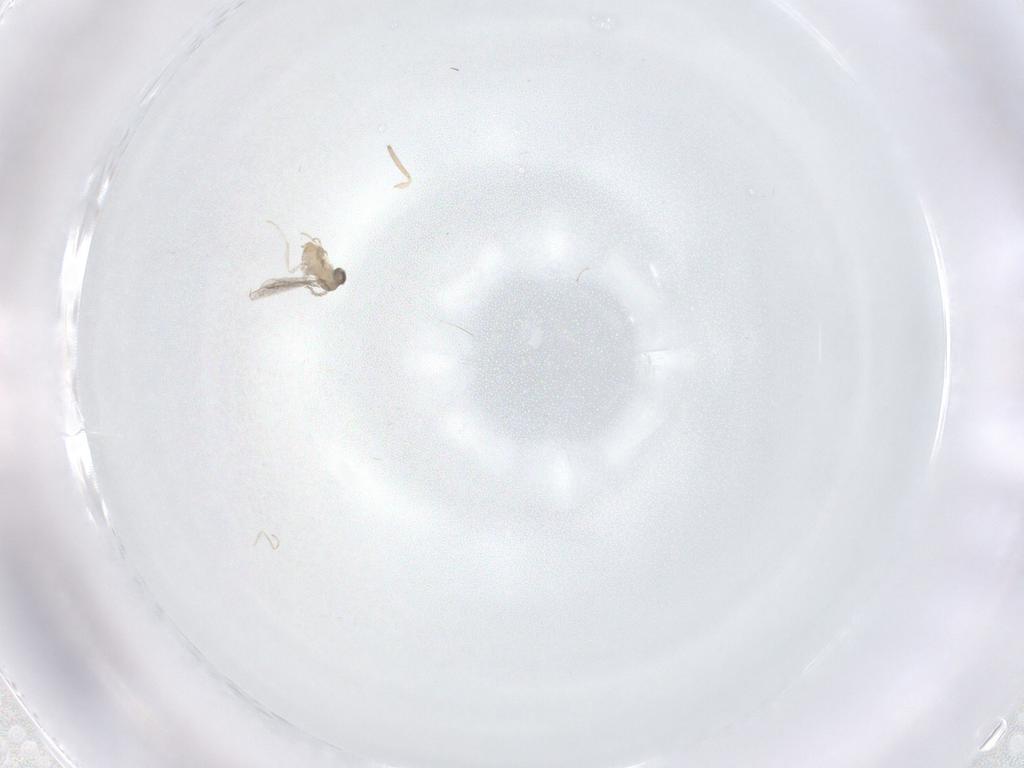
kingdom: Animalia
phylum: Arthropoda
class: Insecta
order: Diptera
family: Cecidomyiidae
